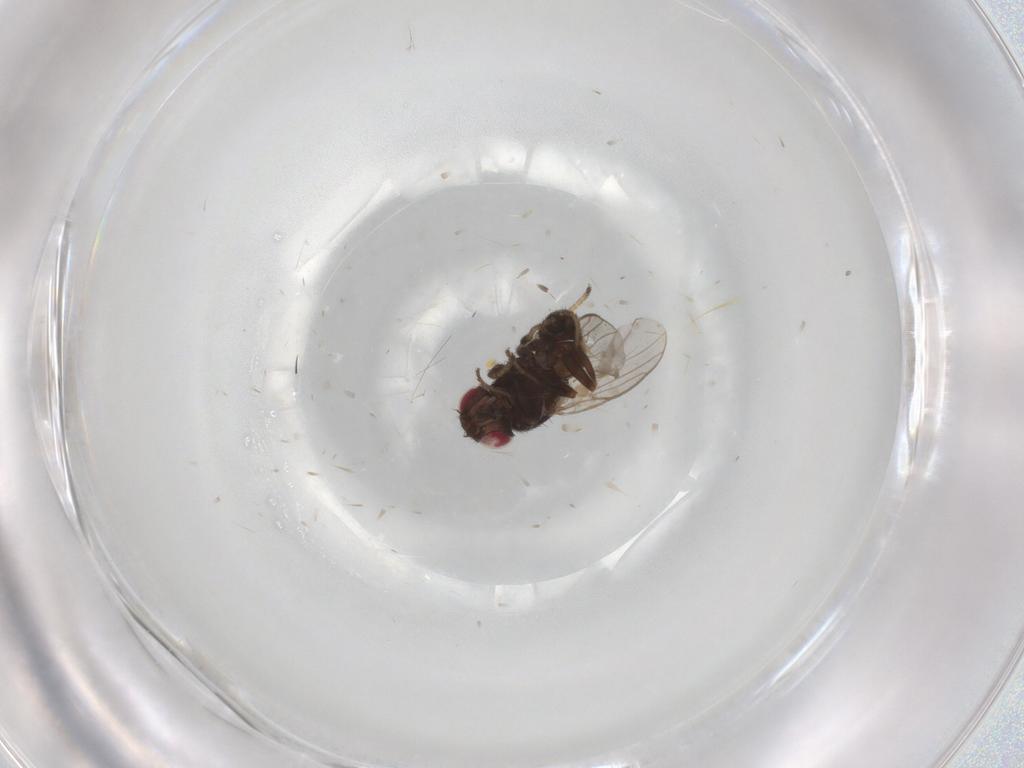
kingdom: Animalia
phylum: Arthropoda
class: Insecta
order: Diptera
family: Chloropidae
